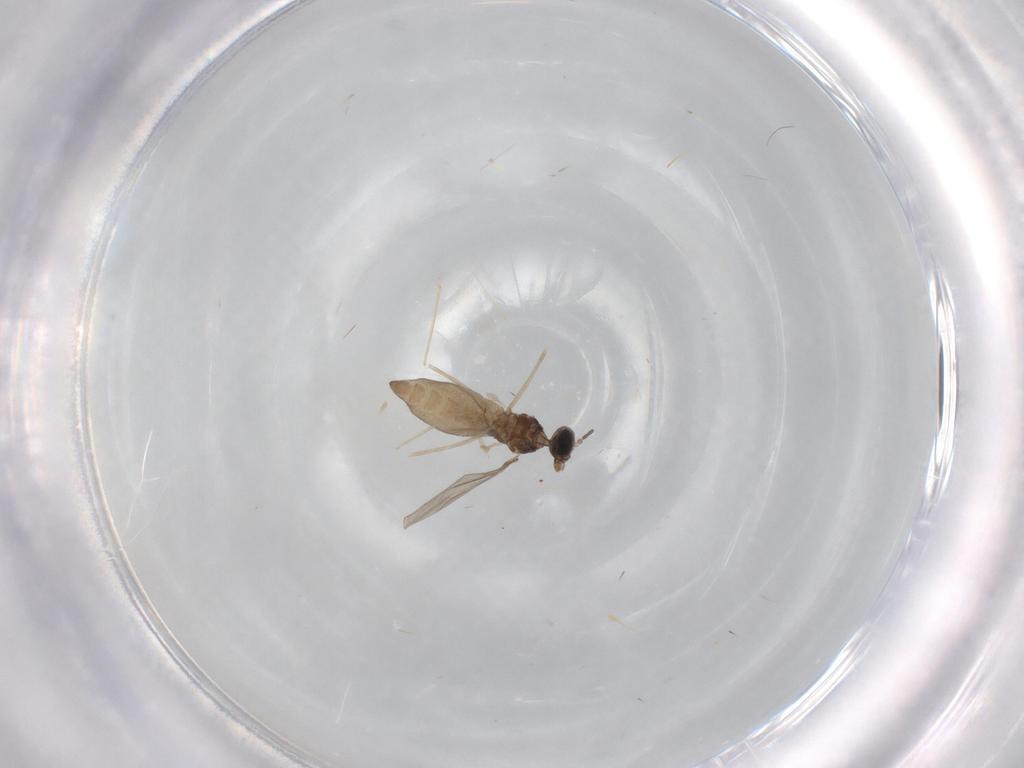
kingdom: Animalia
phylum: Arthropoda
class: Insecta
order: Diptera
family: Cecidomyiidae
